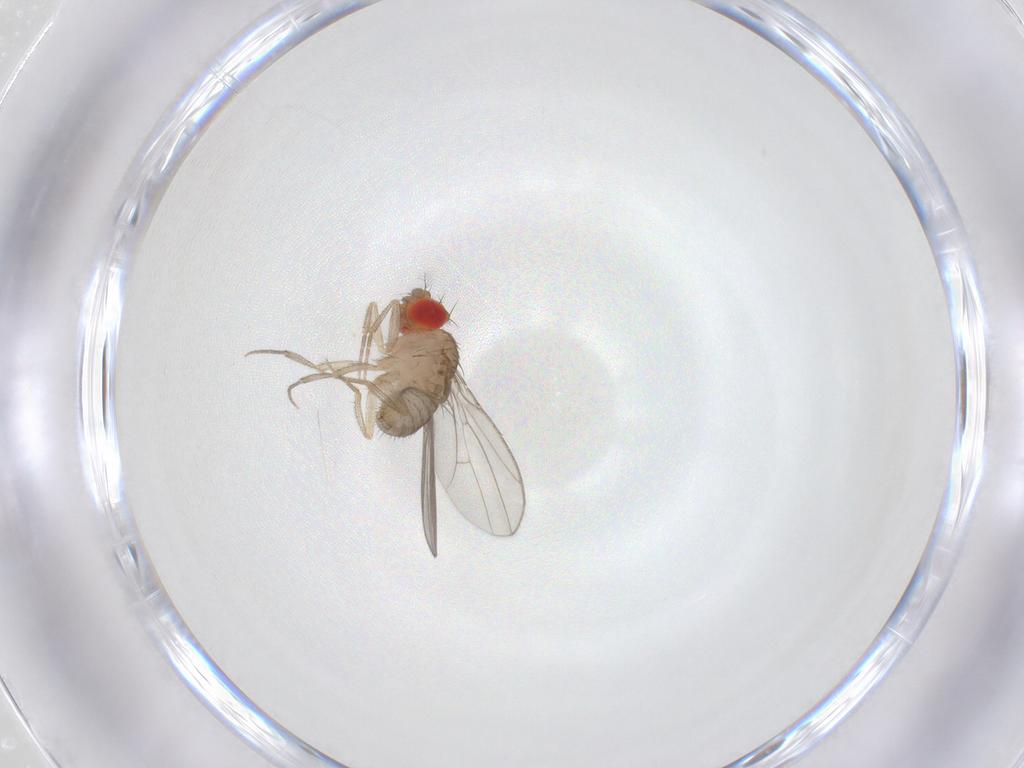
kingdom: Animalia
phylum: Arthropoda
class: Insecta
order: Diptera
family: Drosophilidae
